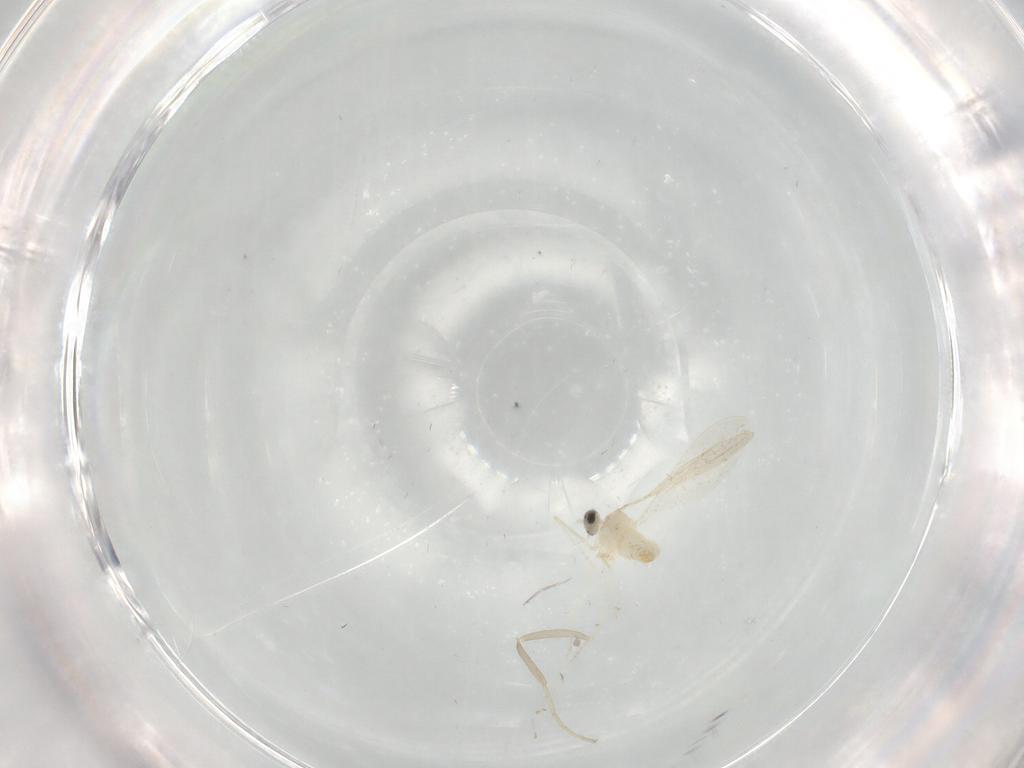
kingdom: Animalia
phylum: Arthropoda
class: Insecta
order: Diptera
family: Cecidomyiidae
